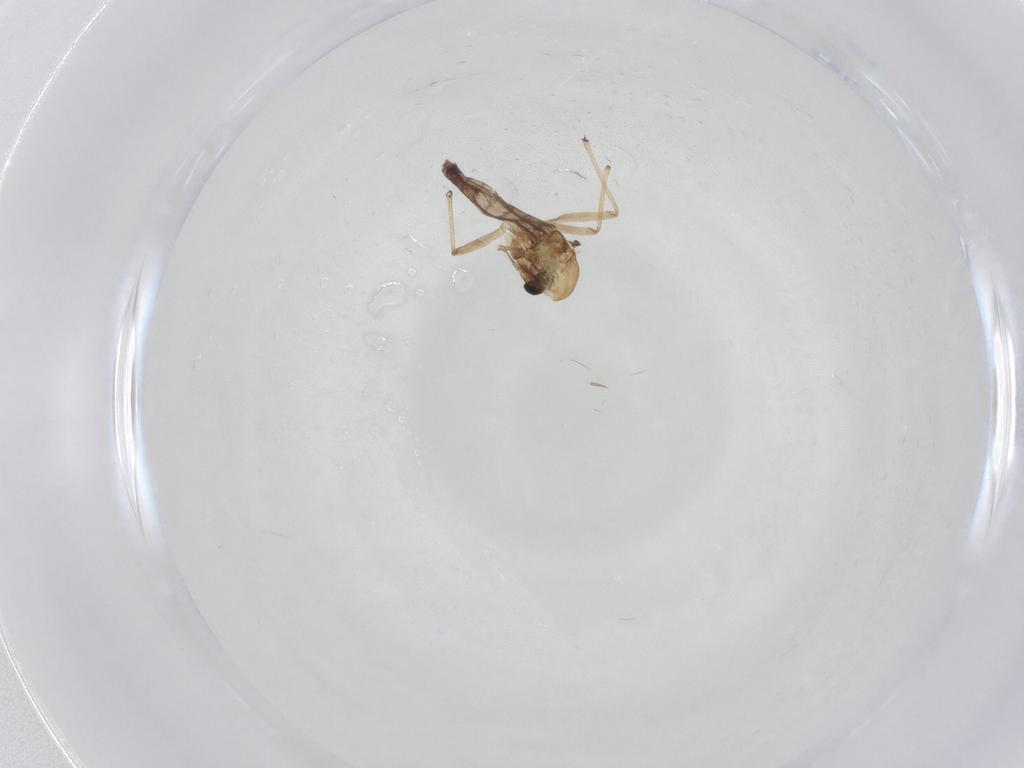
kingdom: Animalia
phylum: Arthropoda
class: Insecta
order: Diptera
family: Chironomidae
